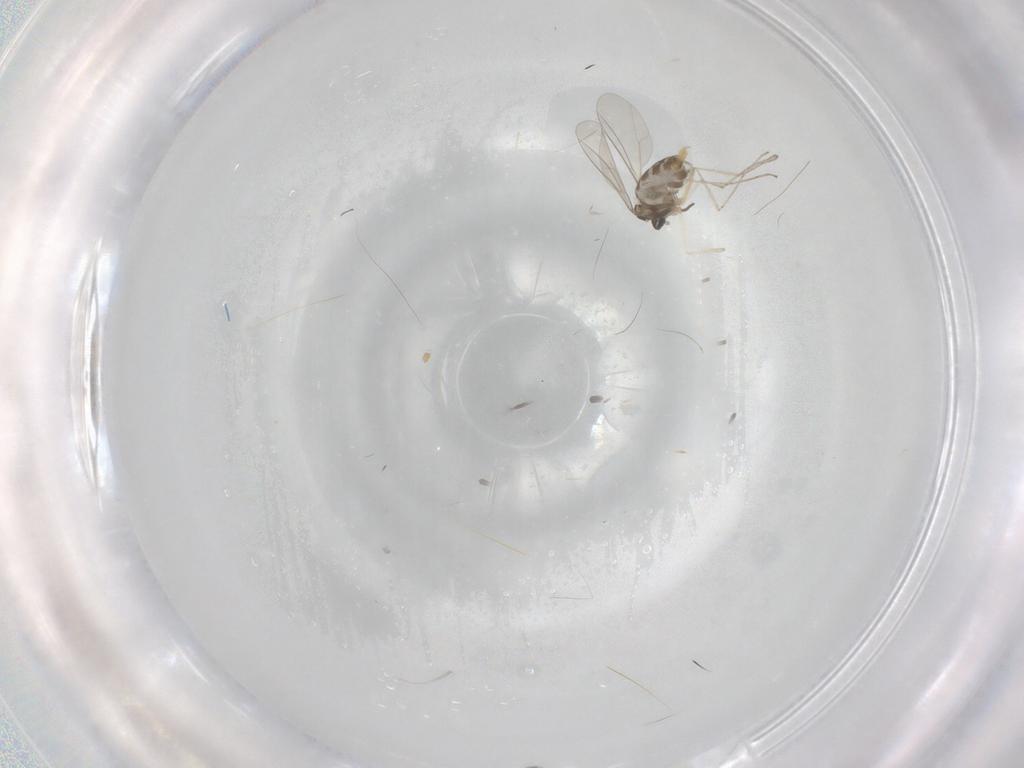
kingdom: Animalia
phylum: Arthropoda
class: Insecta
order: Diptera
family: Cecidomyiidae
